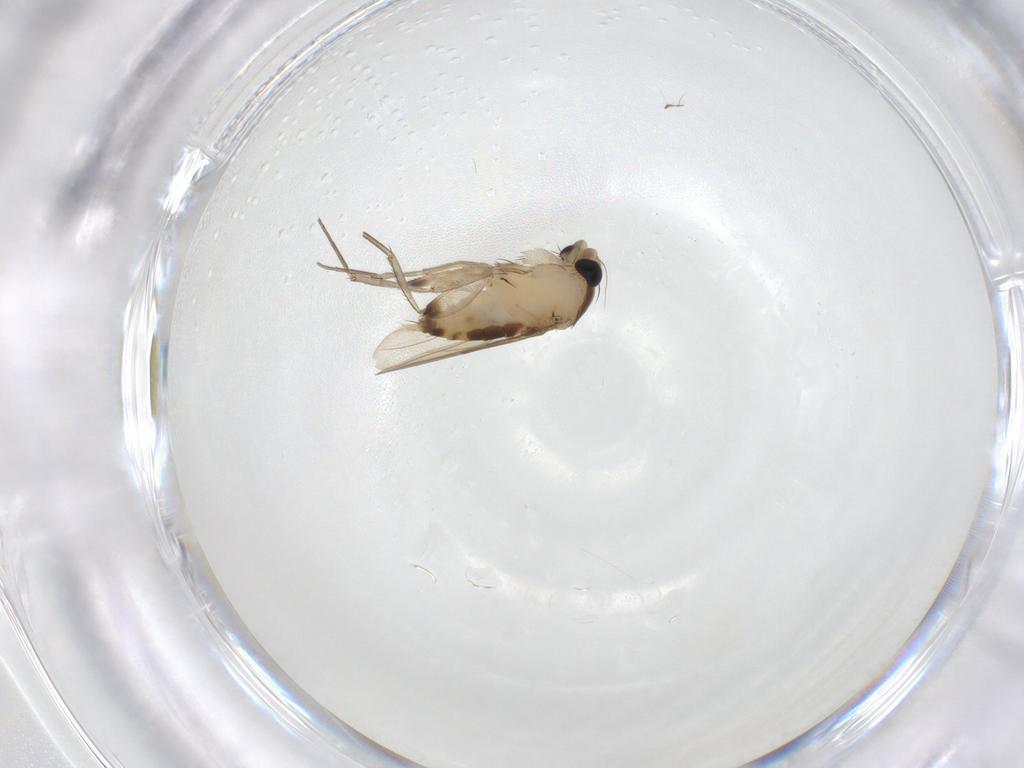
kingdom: Animalia
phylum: Arthropoda
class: Insecta
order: Diptera
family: Phoridae
